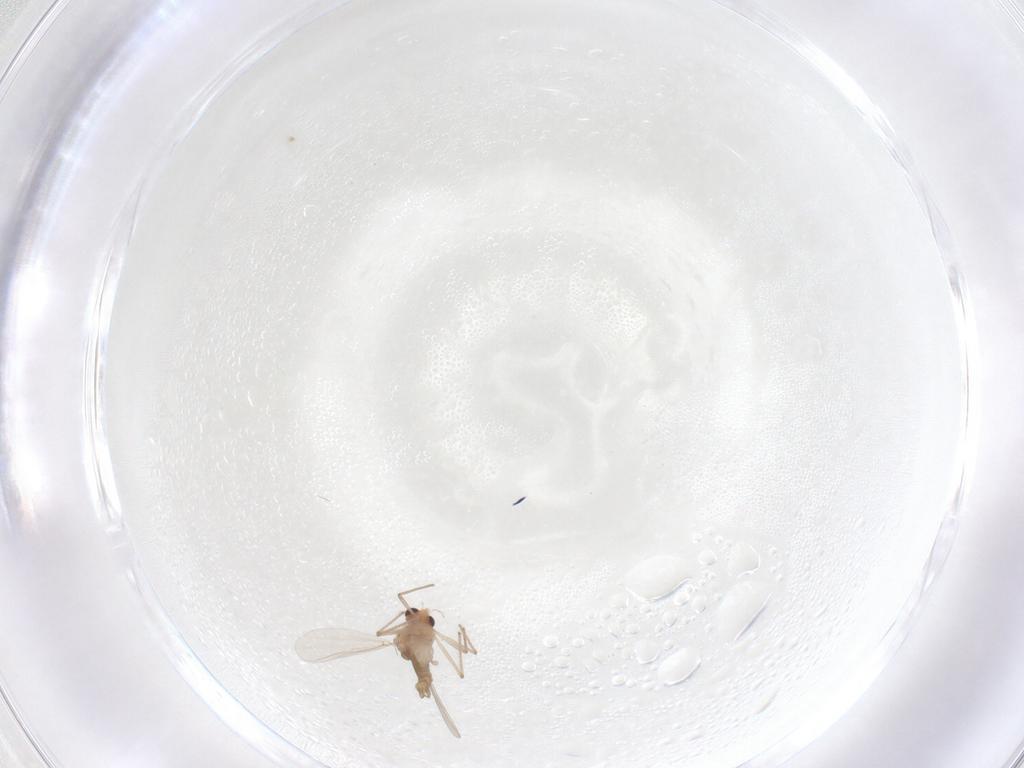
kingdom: Animalia
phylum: Arthropoda
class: Insecta
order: Diptera
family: Chironomidae
